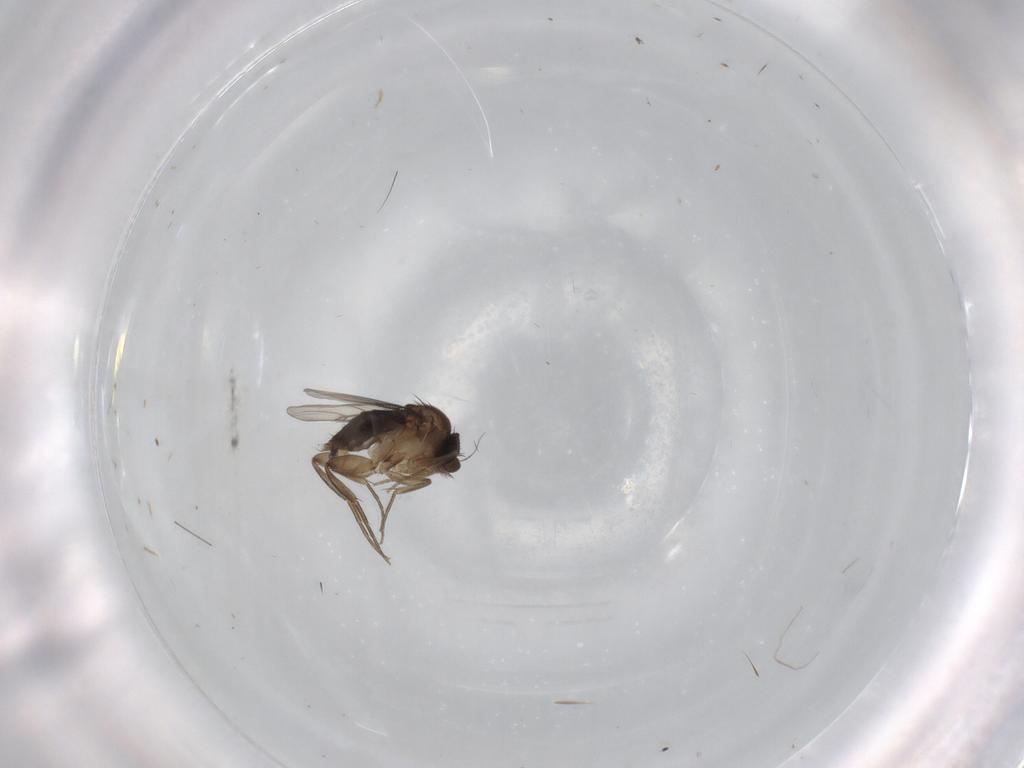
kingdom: Animalia
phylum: Arthropoda
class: Insecta
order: Diptera
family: Phoridae
